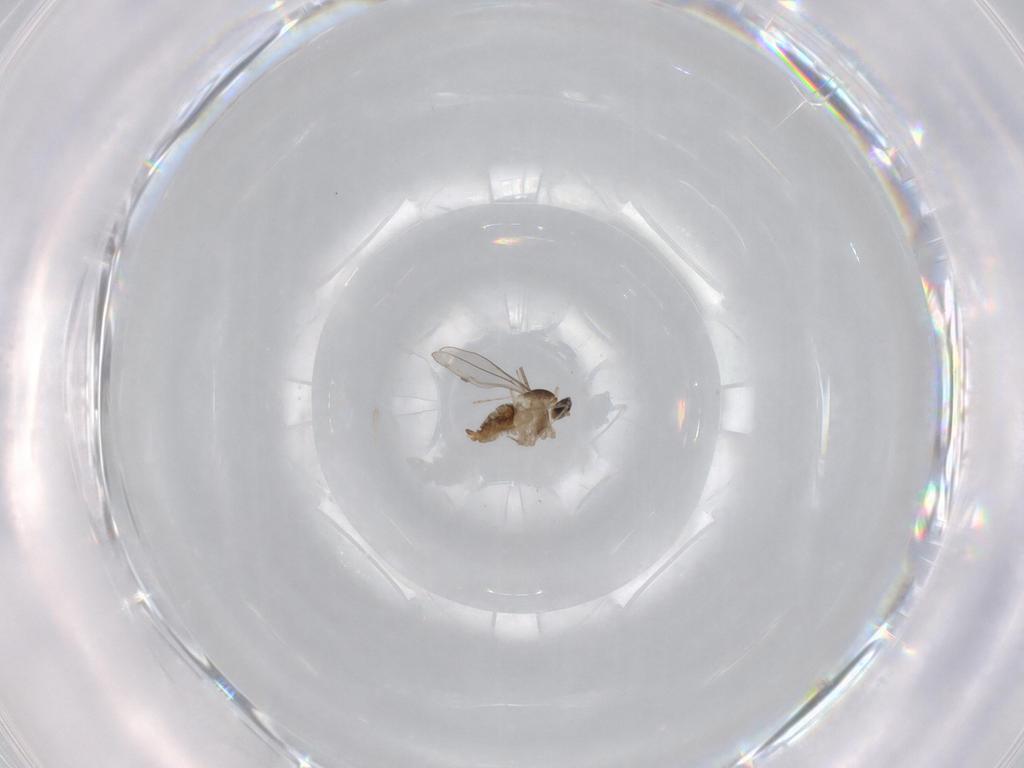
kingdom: Animalia
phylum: Arthropoda
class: Insecta
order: Diptera
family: Cecidomyiidae
